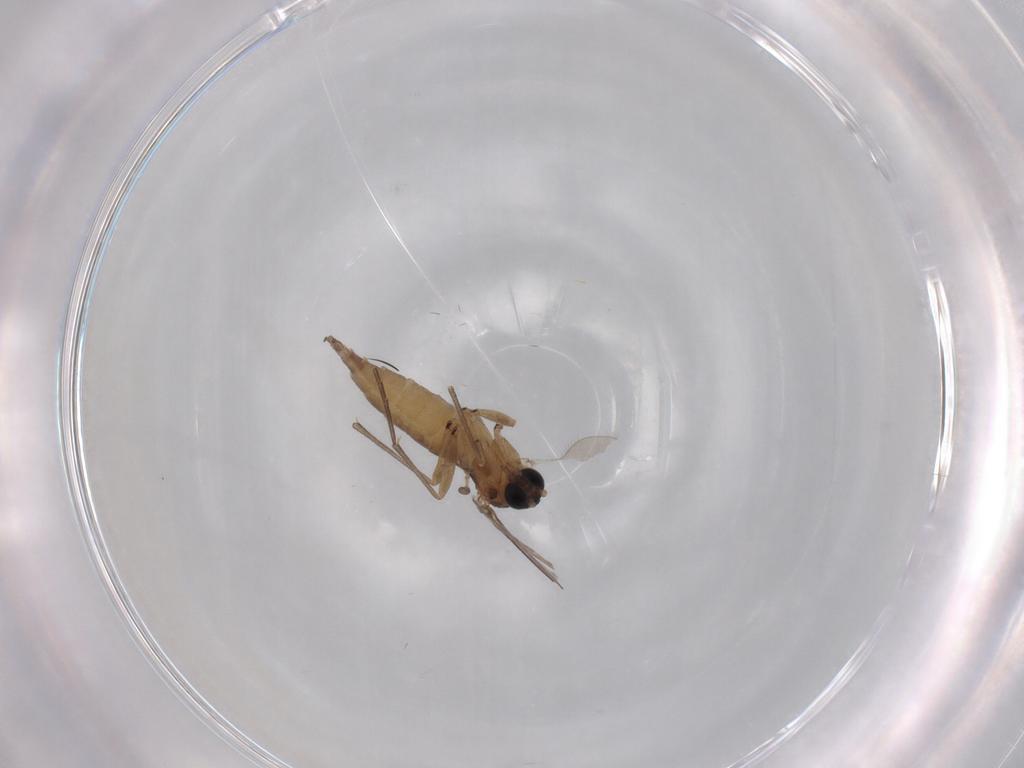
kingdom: Animalia
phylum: Arthropoda
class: Insecta
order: Diptera
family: Sciaridae
